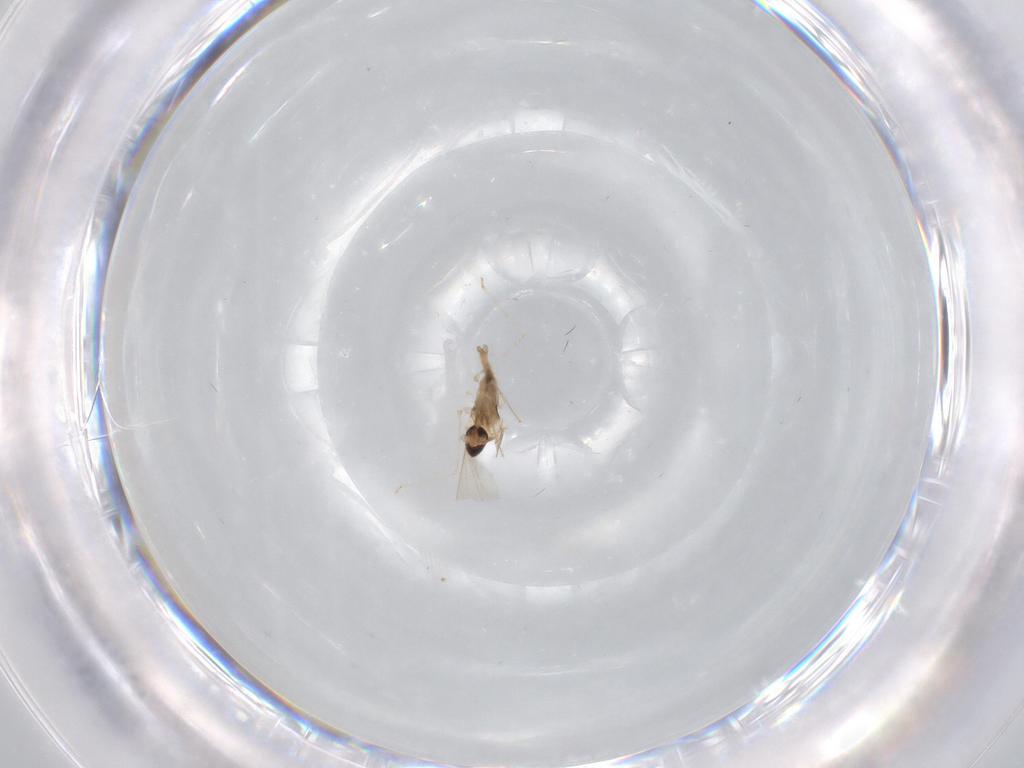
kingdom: Animalia
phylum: Arthropoda
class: Insecta
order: Diptera
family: Cecidomyiidae
